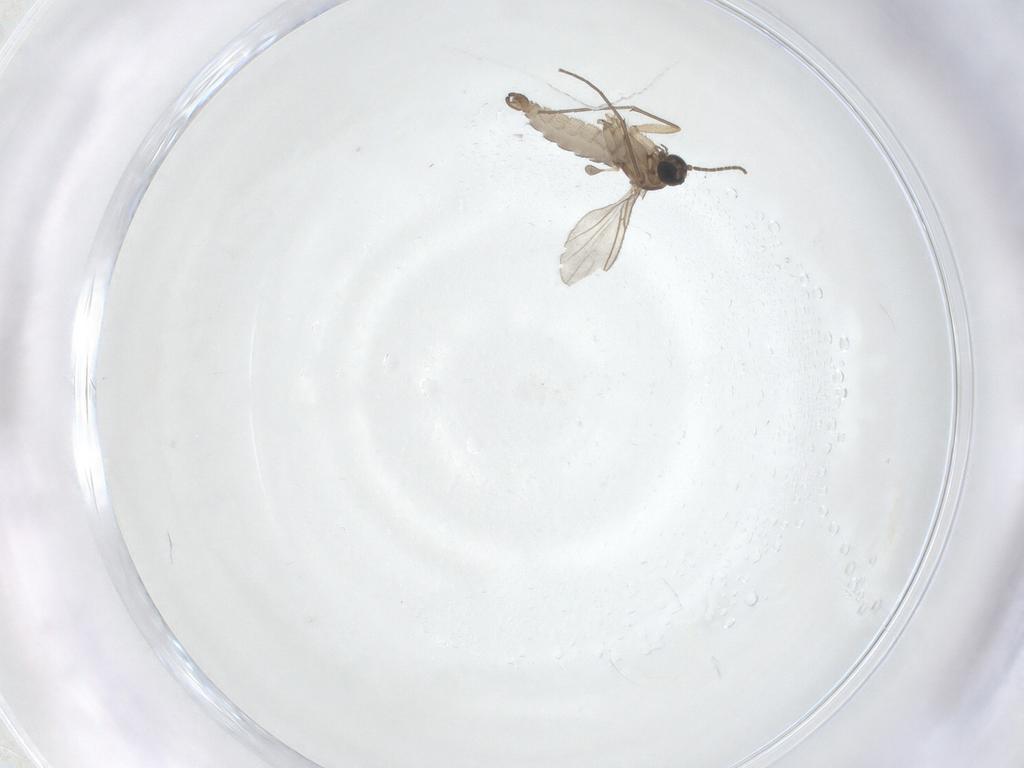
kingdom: Animalia
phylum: Arthropoda
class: Insecta
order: Diptera
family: Sciaridae
